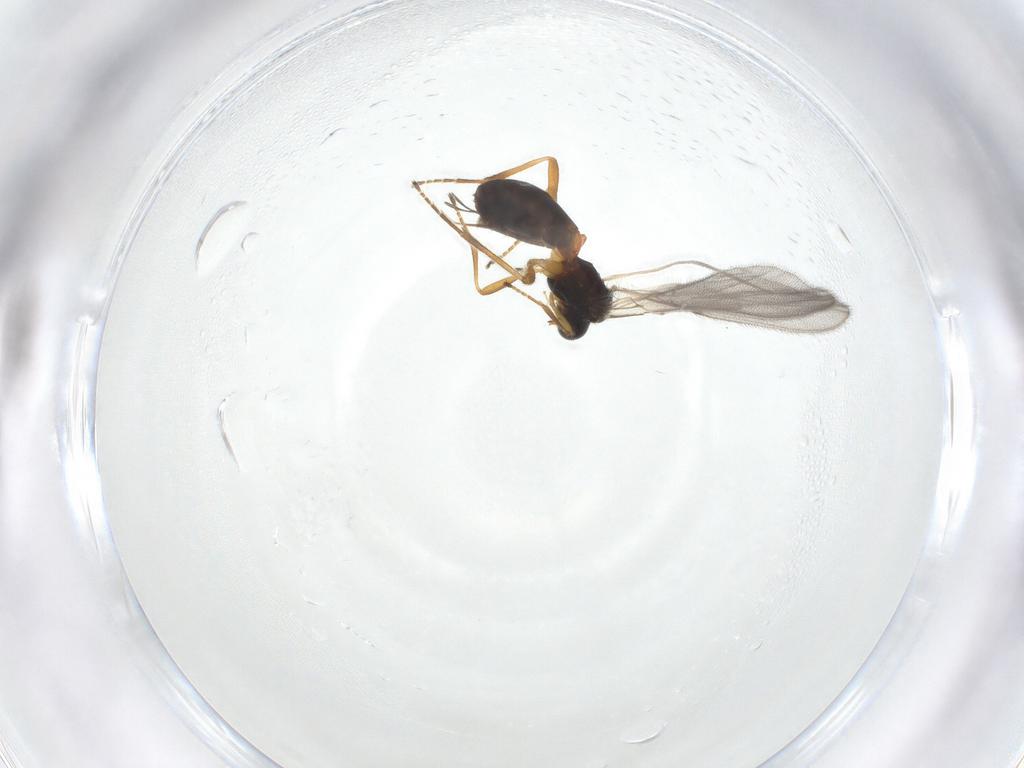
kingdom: Animalia
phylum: Arthropoda
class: Insecta
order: Hymenoptera
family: Braconidae
